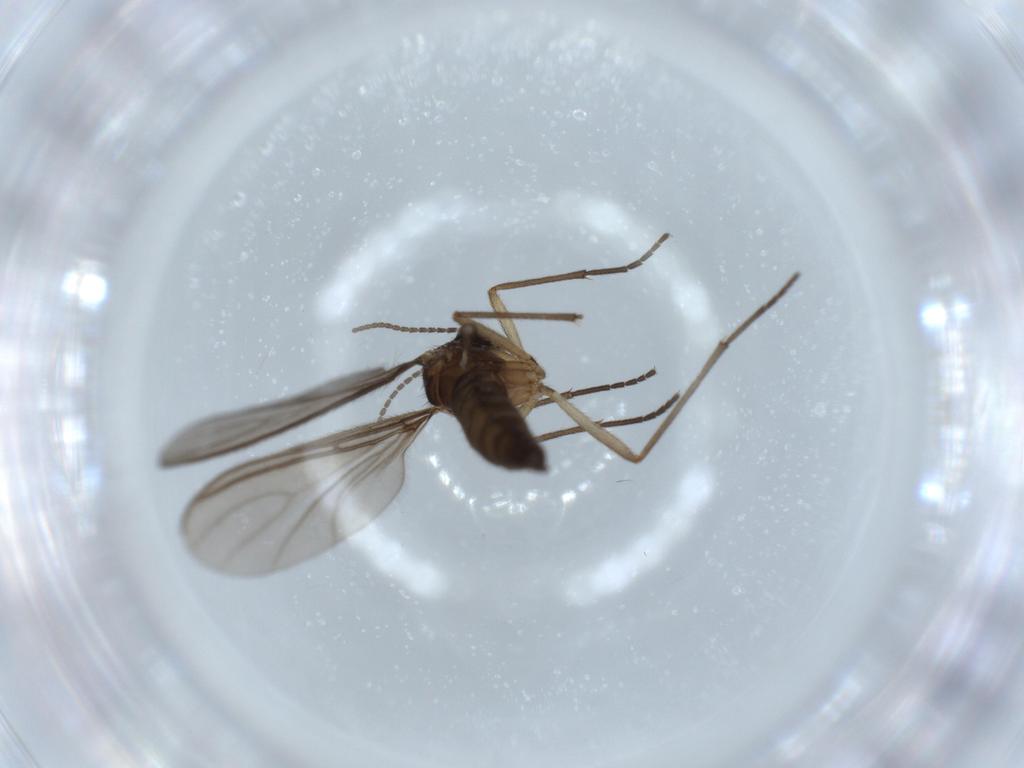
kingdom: Animalia
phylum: Arthropoda
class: Insecta
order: Diptera
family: Sciaridae
